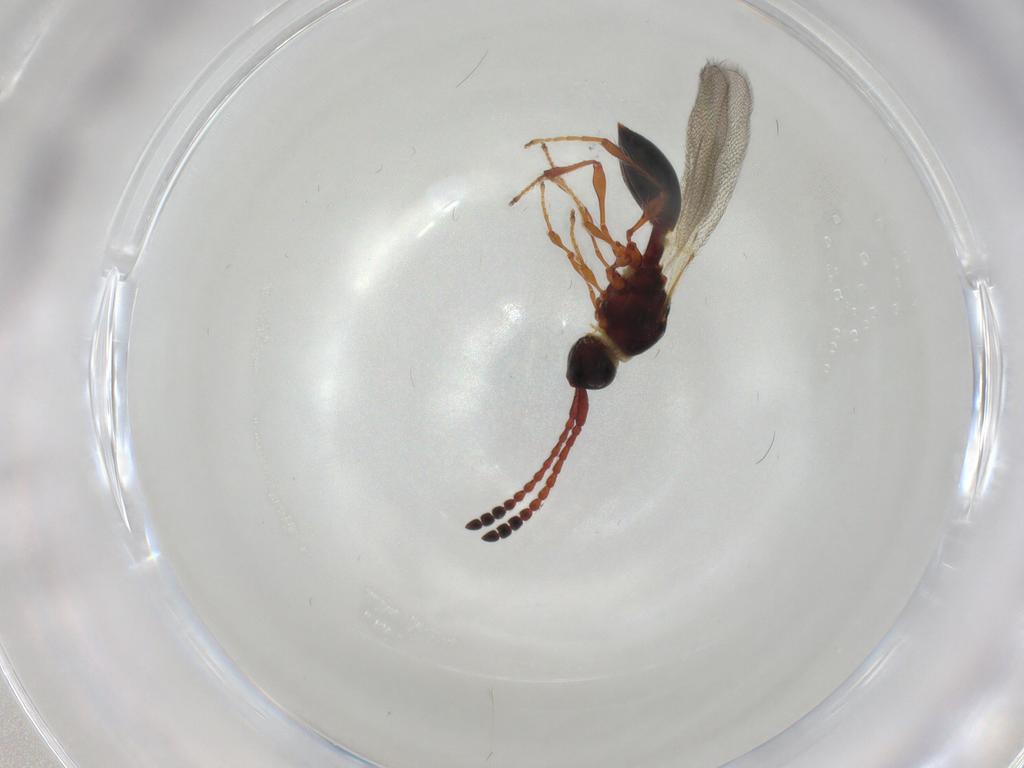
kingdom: Animalia
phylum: Arthropoda
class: Insecta
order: Hymenoptera
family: Diapriidae
